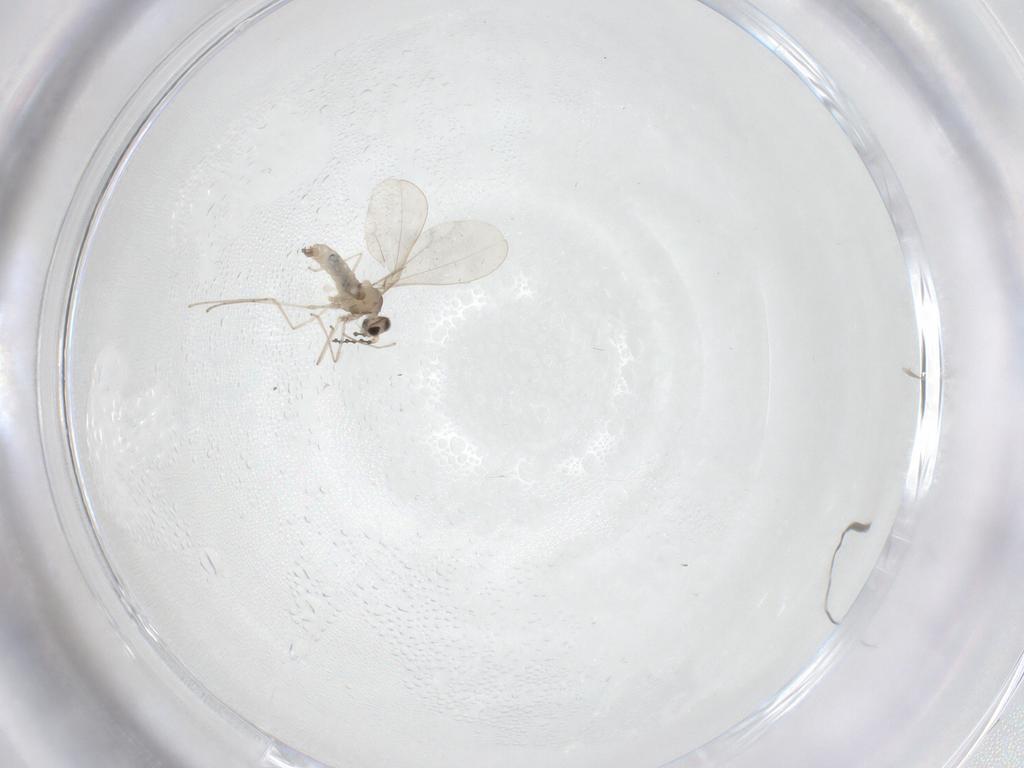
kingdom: Animalia
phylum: Arthropoda
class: Insecta
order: Diptera
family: Cecidomyiidae
